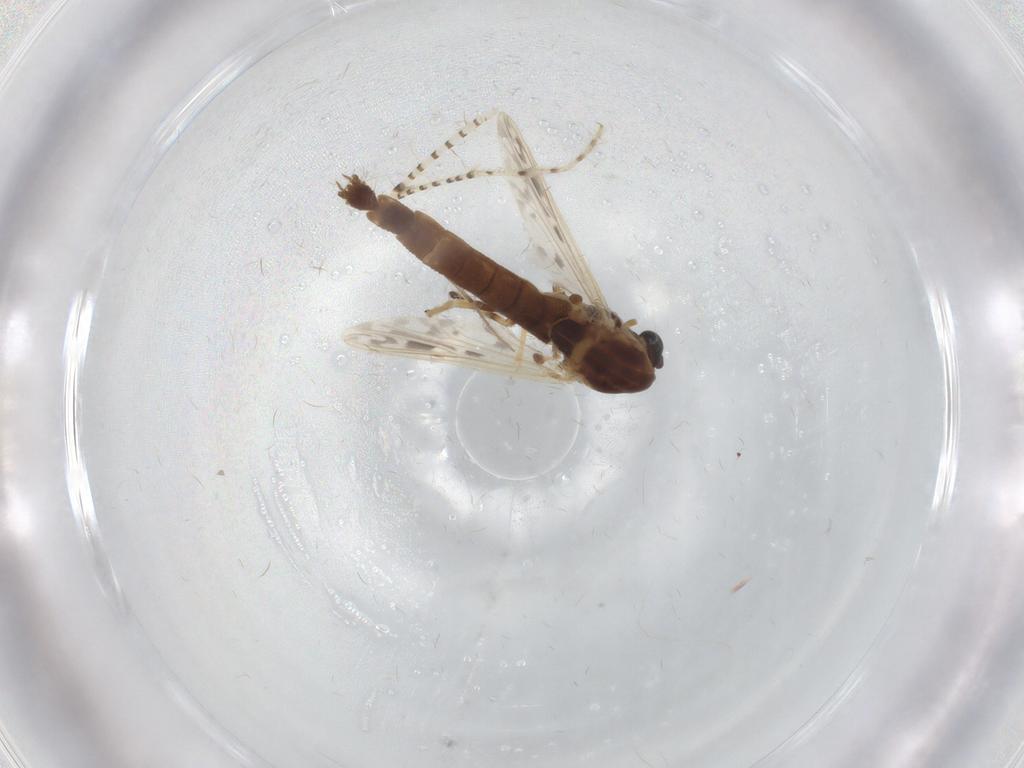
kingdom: Animalia
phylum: Arthropoda
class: Insecta
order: Diptera
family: Chironomidae
